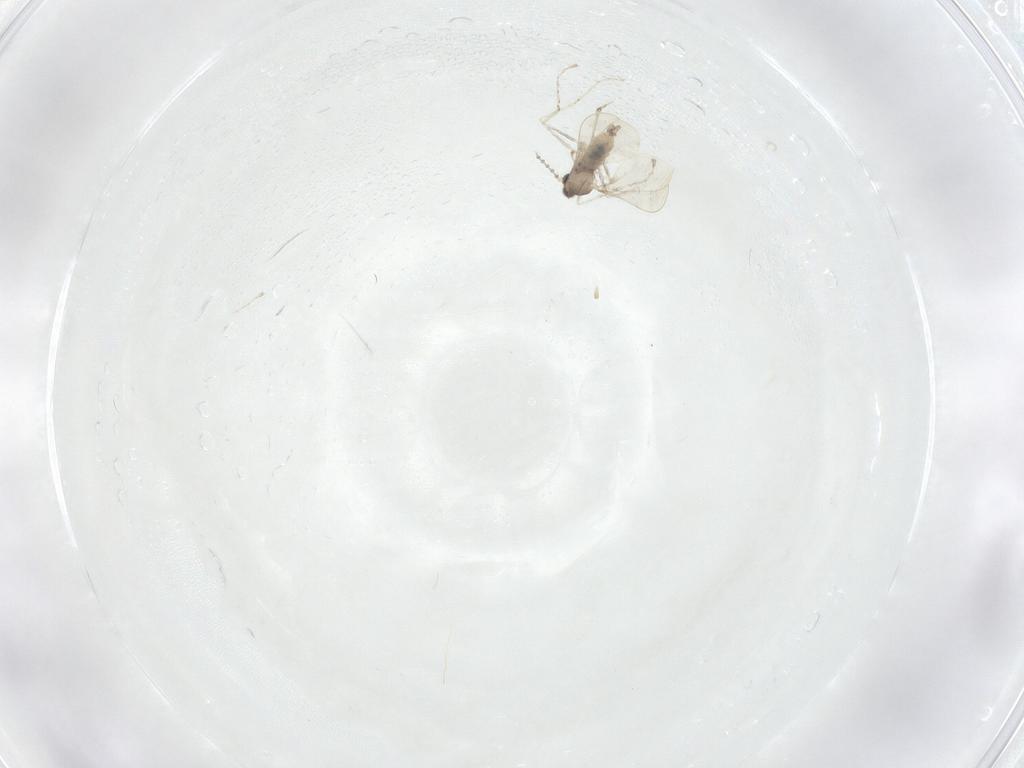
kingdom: Animalia
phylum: Arthropoda
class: Insecta
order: Diptera
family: Cecidomyiidae
